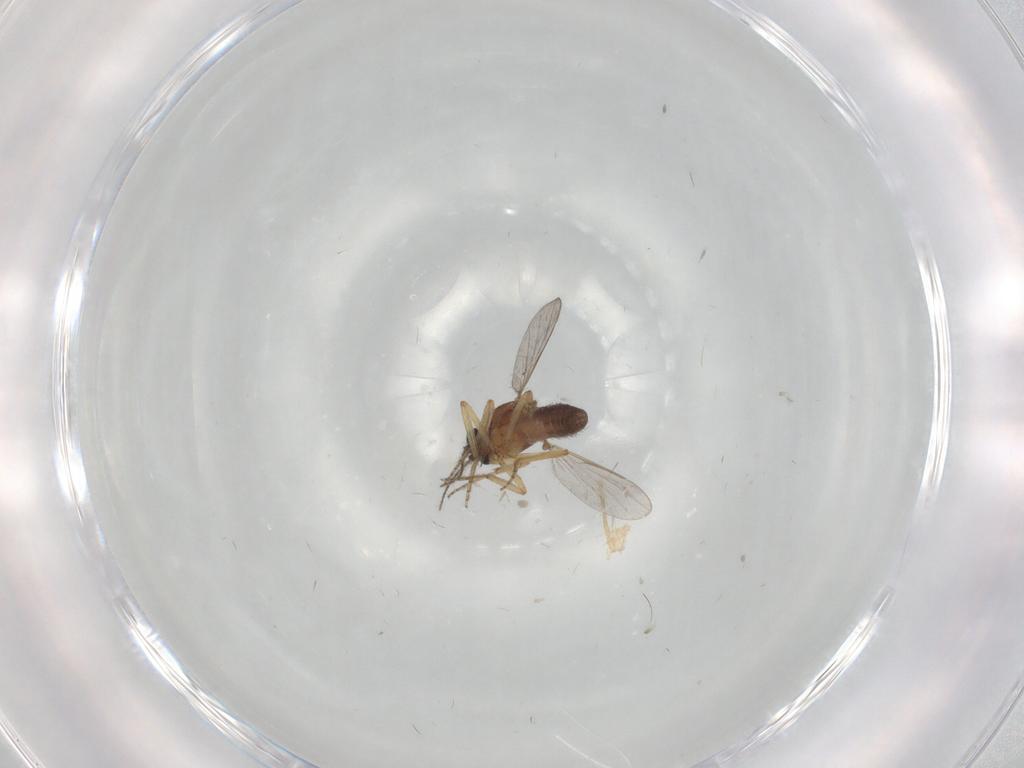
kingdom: Animalia
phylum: Arthropoda
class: Insecta
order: Diptera
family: Ceratopogonidae
